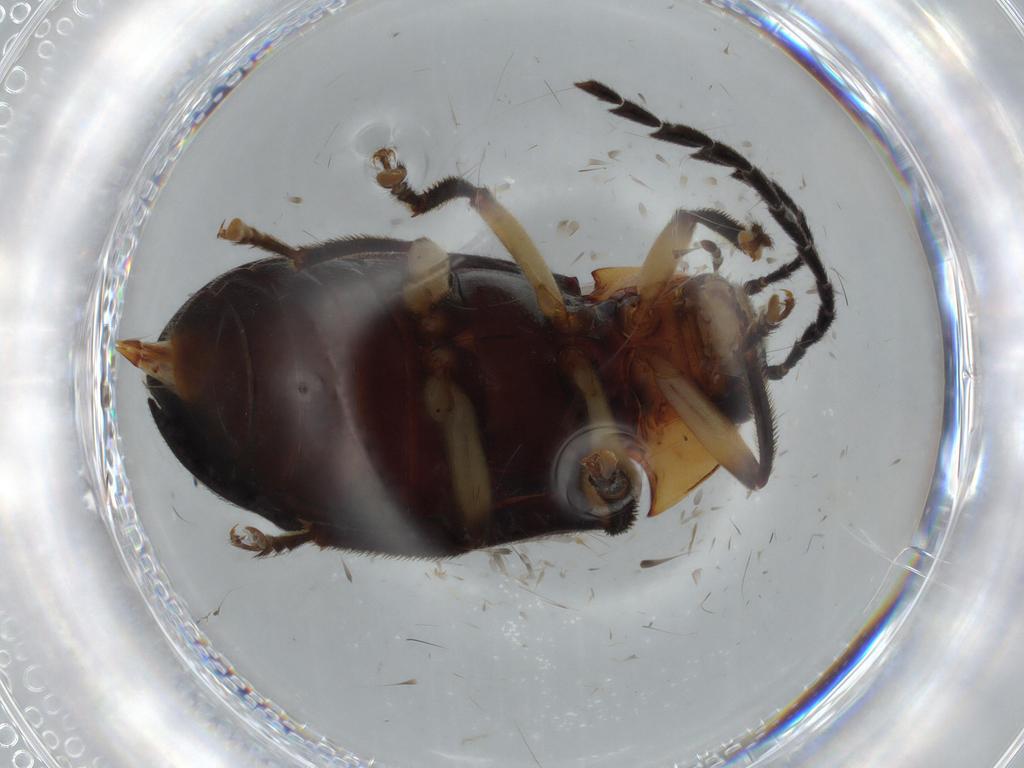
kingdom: Animalia
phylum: Arthropoda
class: Insecta
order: Coleoptera
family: Ptilodactylidae
